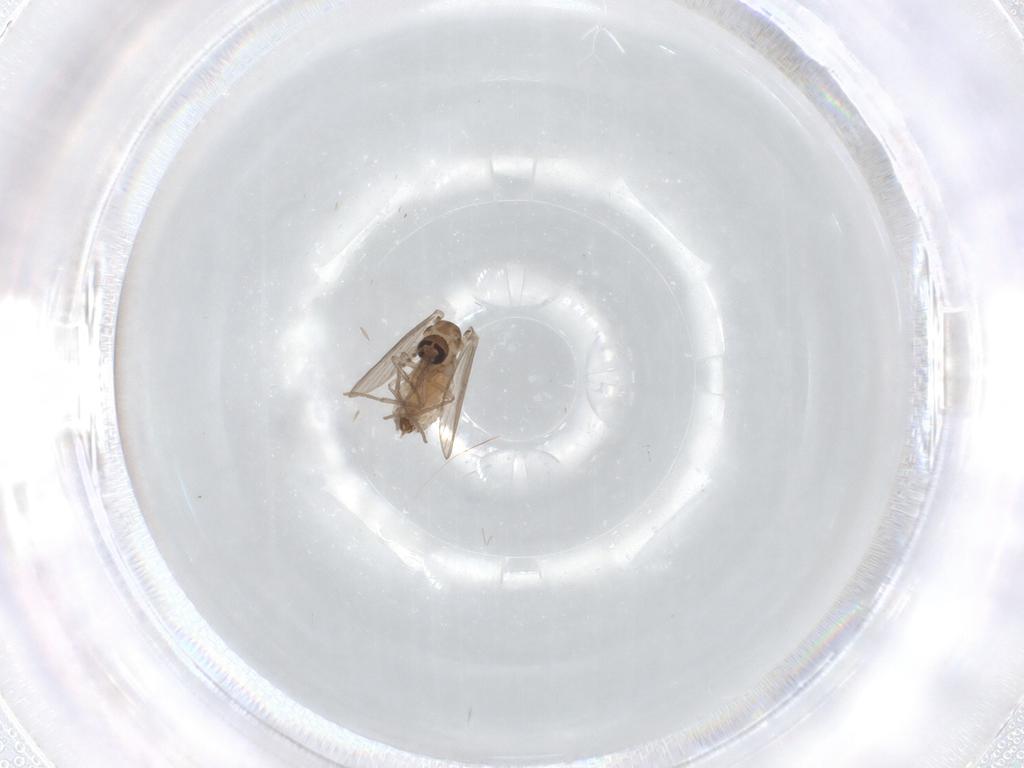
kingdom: Animalia
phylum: Arthropoda
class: Insecta
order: Diptera
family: Psychodidae
